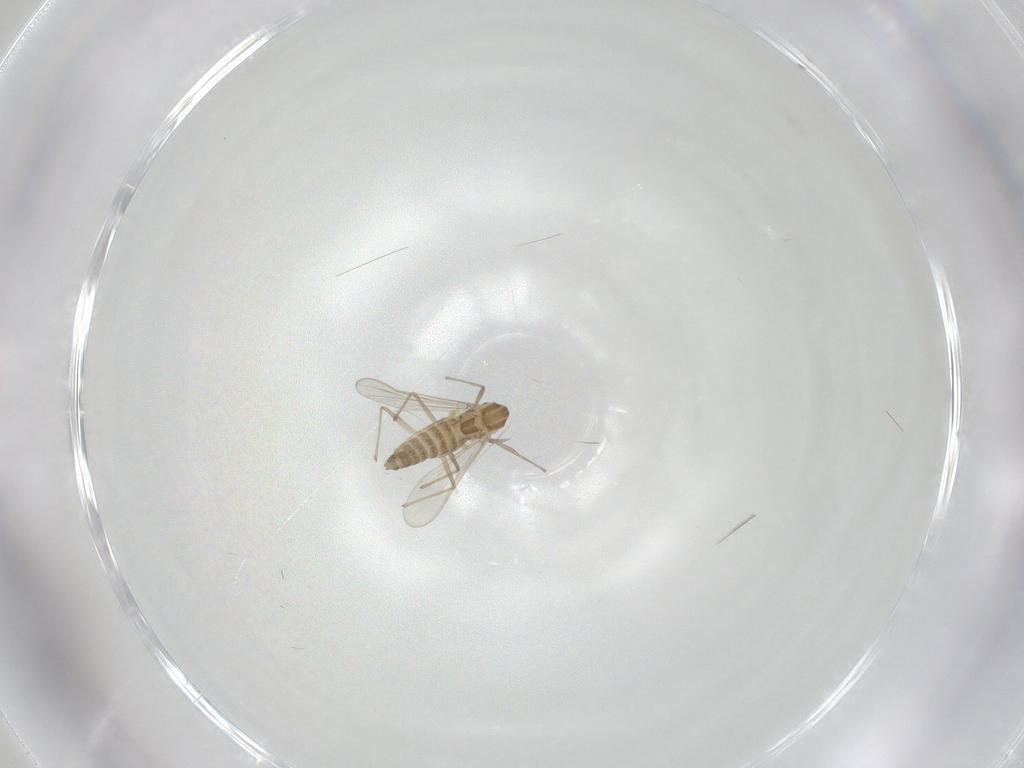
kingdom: Animalia
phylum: Arthropoda
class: Insecta
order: Diptera
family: Chironomidae
